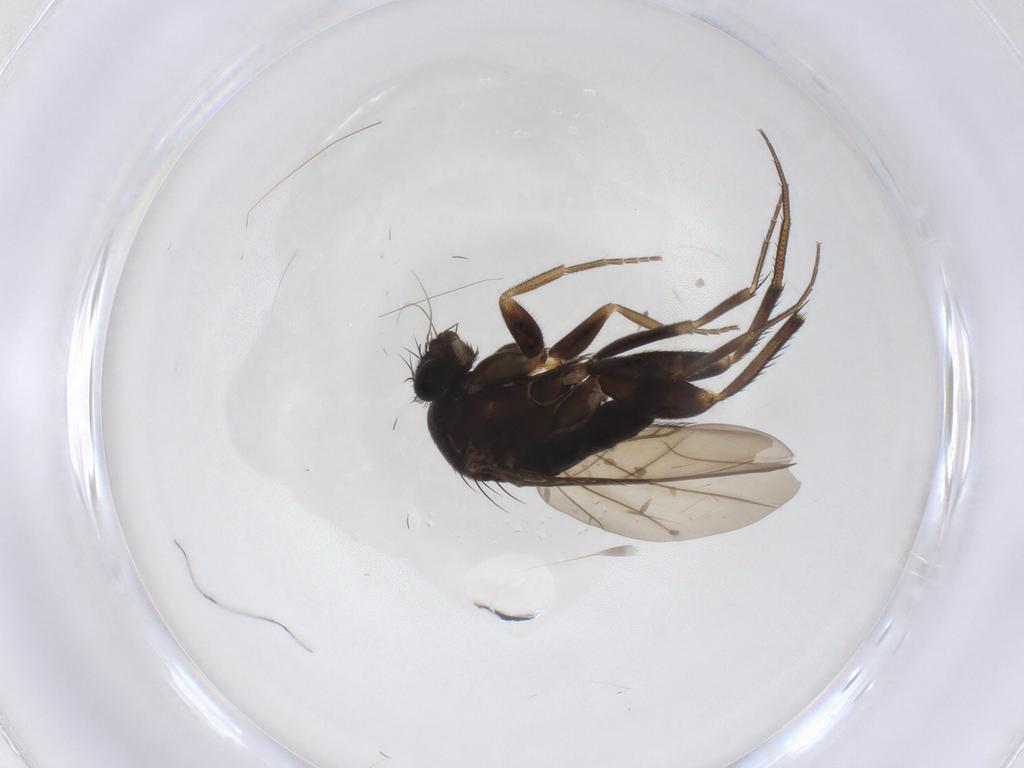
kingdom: Animalia
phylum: Arthropoda
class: Insecta
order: Diptera
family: Phoridae
